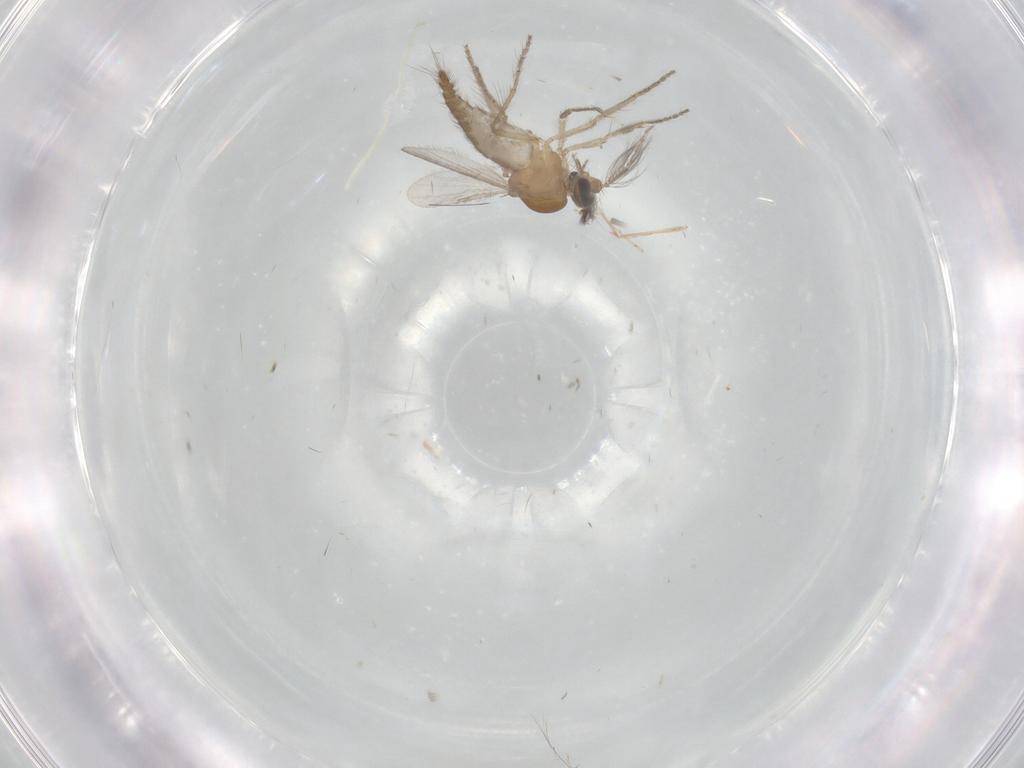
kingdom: Animalia
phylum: Arthropoda
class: Insecta
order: Diptera
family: Ceratopogonidae
